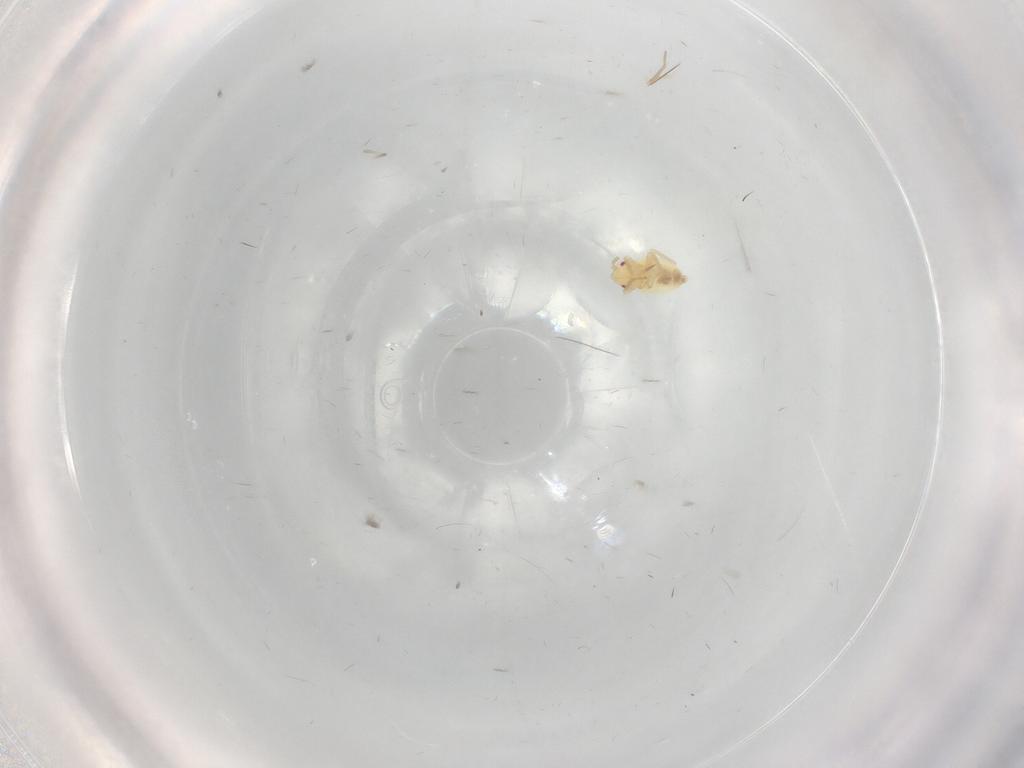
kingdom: Animalia
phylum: Arthropoda
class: Insecta
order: Hemiptera
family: Miridae
